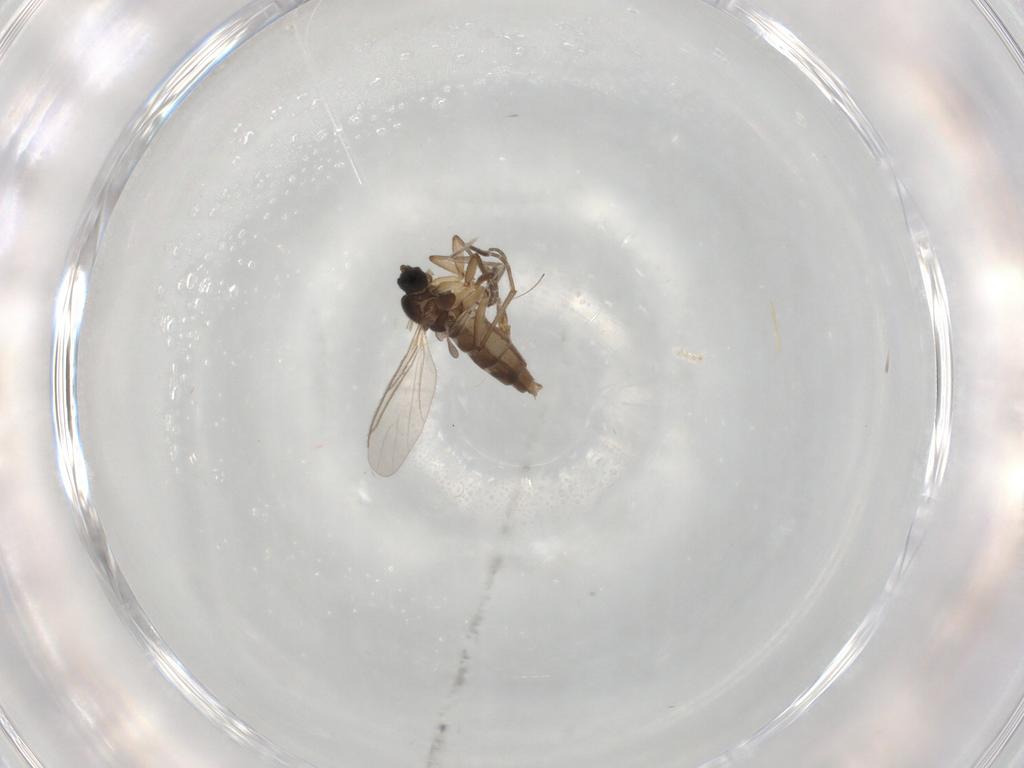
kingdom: Animalia
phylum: Arthropoda
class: Insecta
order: Diptera
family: Sciaridae
